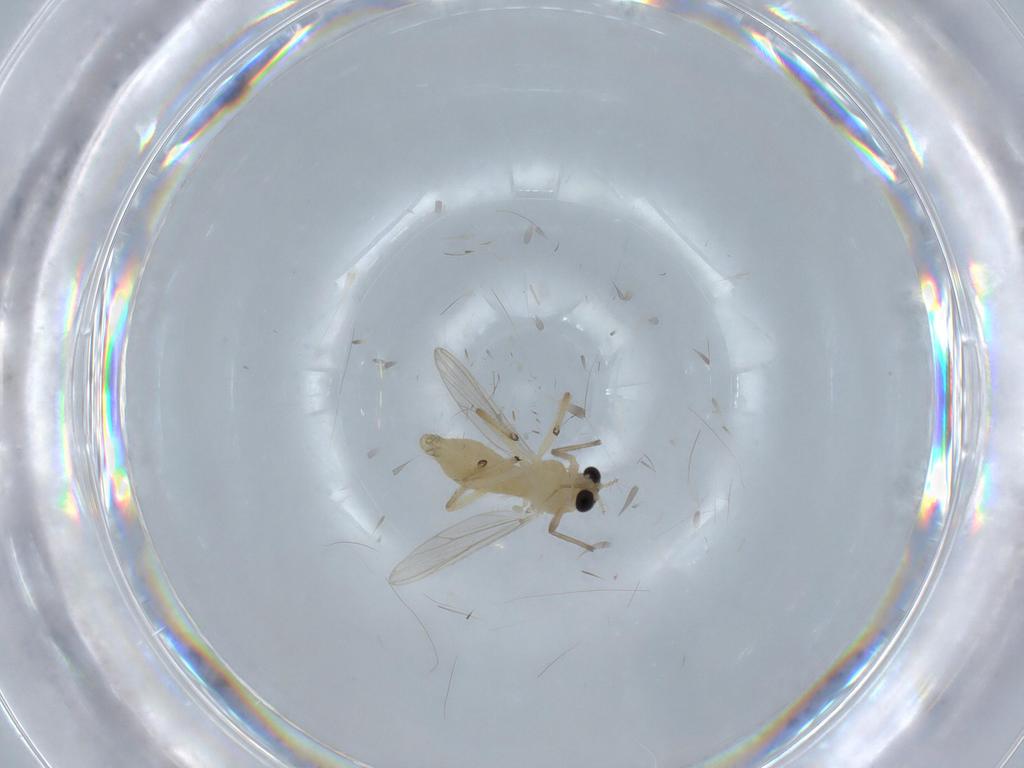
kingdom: Animalia
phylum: Arthropoda
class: Insecta
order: Diptera
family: Chironomidae
